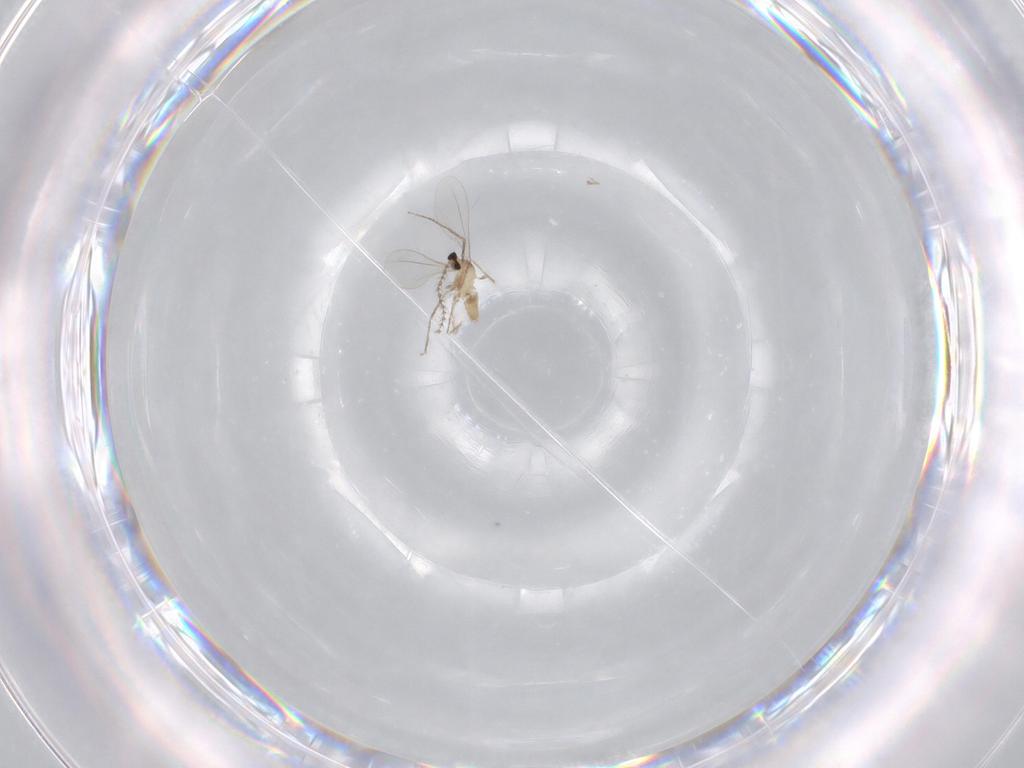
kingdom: Animalia
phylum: Arthropoda
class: Insecta
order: Diptera
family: Cecidomyiidae
